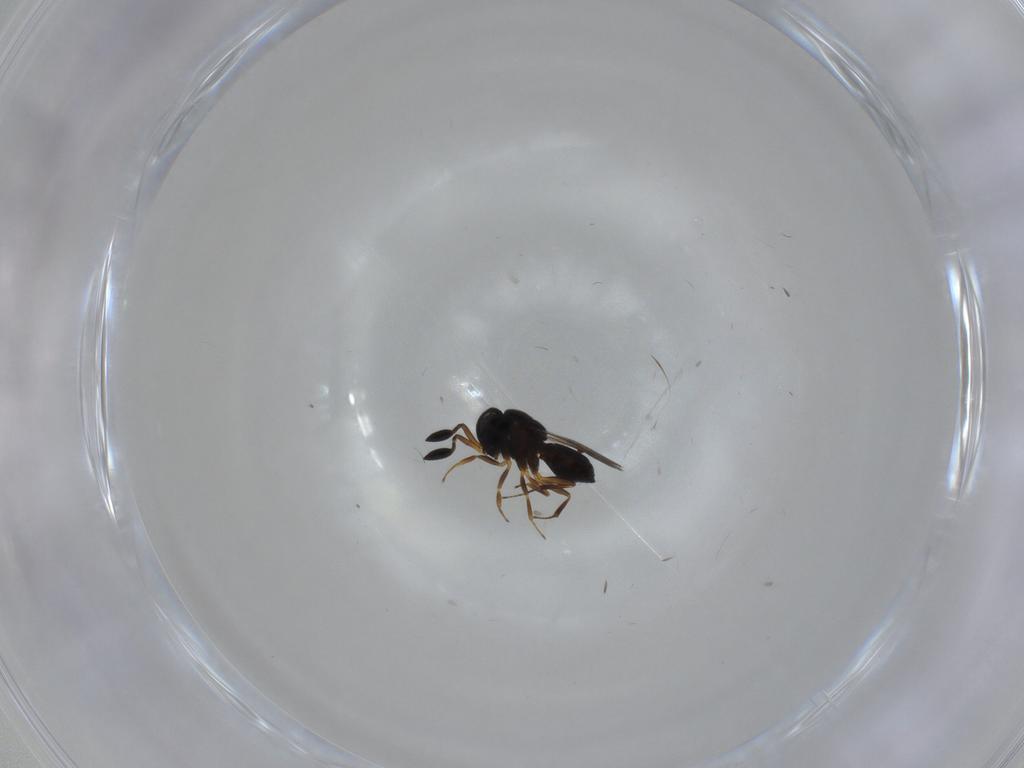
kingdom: Animalia
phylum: Arthropoda
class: Insecta
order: Hymenoptera
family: Scelionidae
